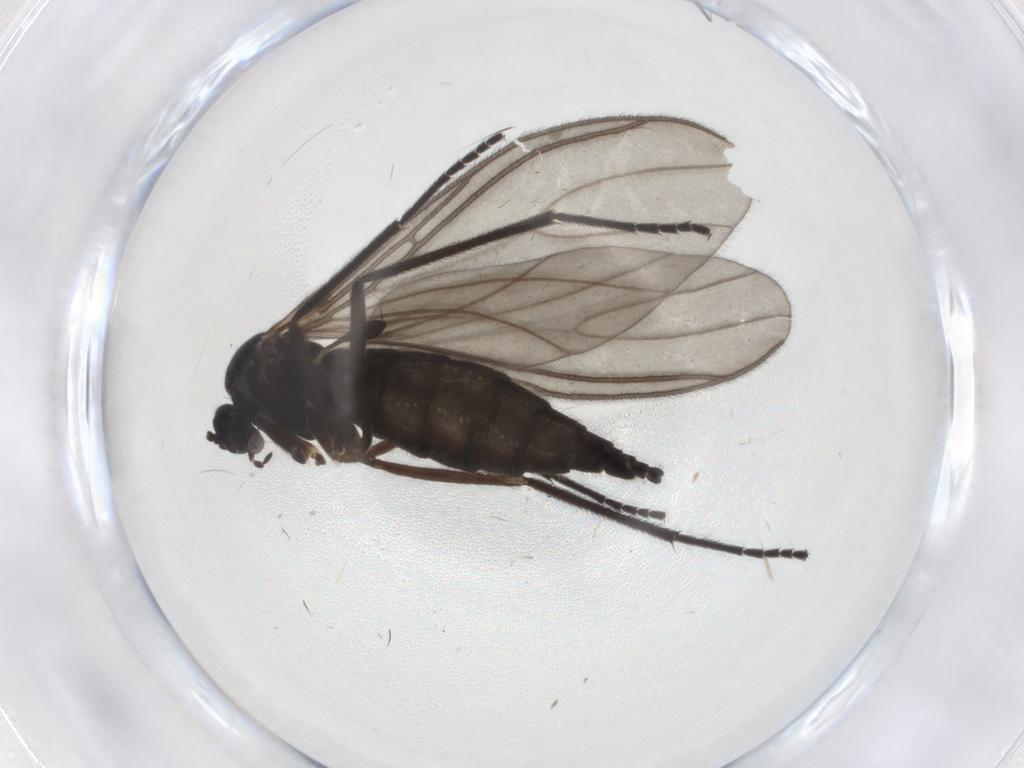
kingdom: Animalia
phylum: Arthropoda
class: Insecta
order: Diptera
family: Sciaridae
